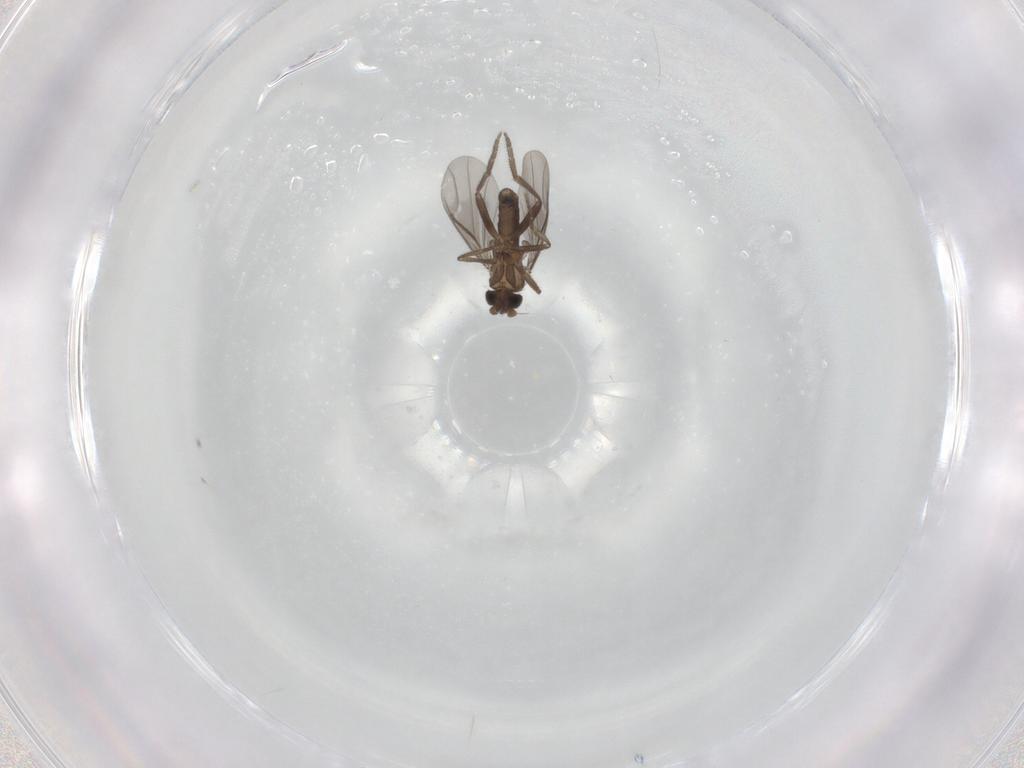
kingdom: Animalia
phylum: Arthropoda
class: Insecta
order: Diptera
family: Phoridae
